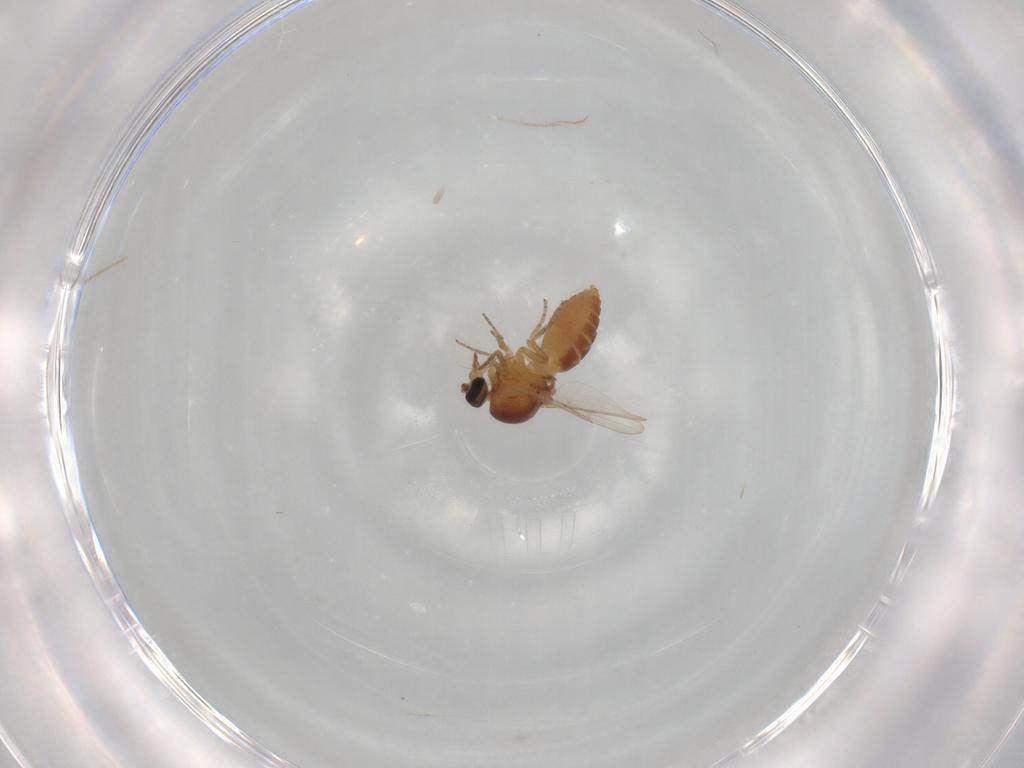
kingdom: Animalia
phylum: Arthropoda
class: Insecta
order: Diptera
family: Ceratopogonidae
